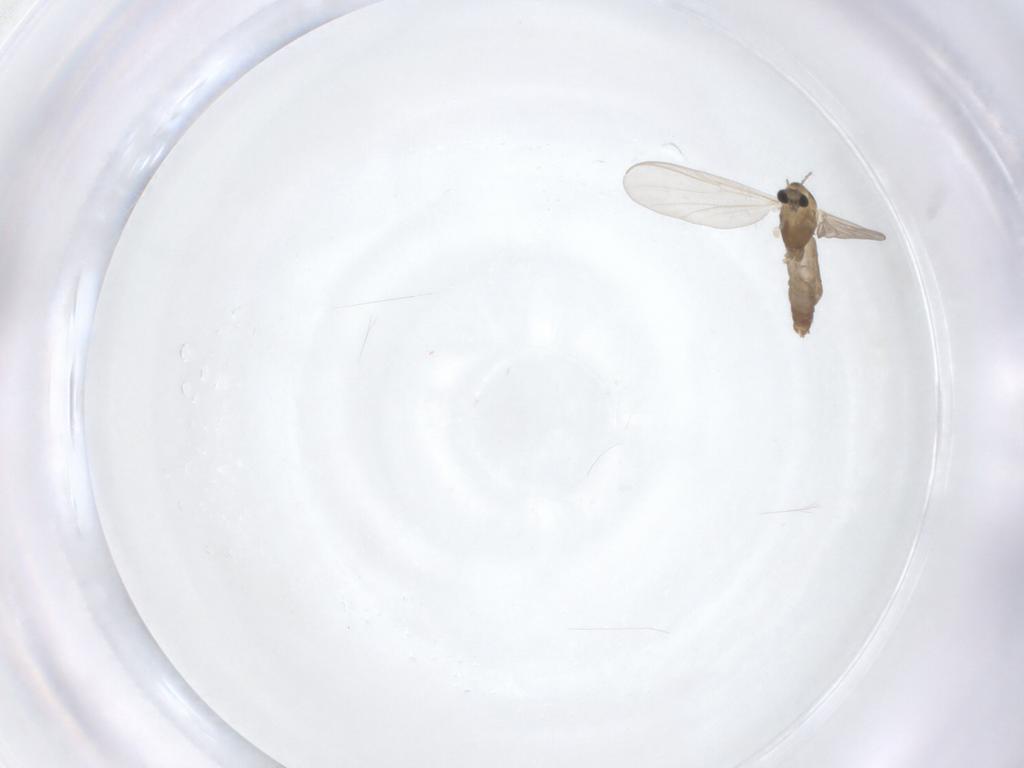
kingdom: Animalia
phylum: Arthropoda
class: Insecta
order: Diptera
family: Chironomidae
